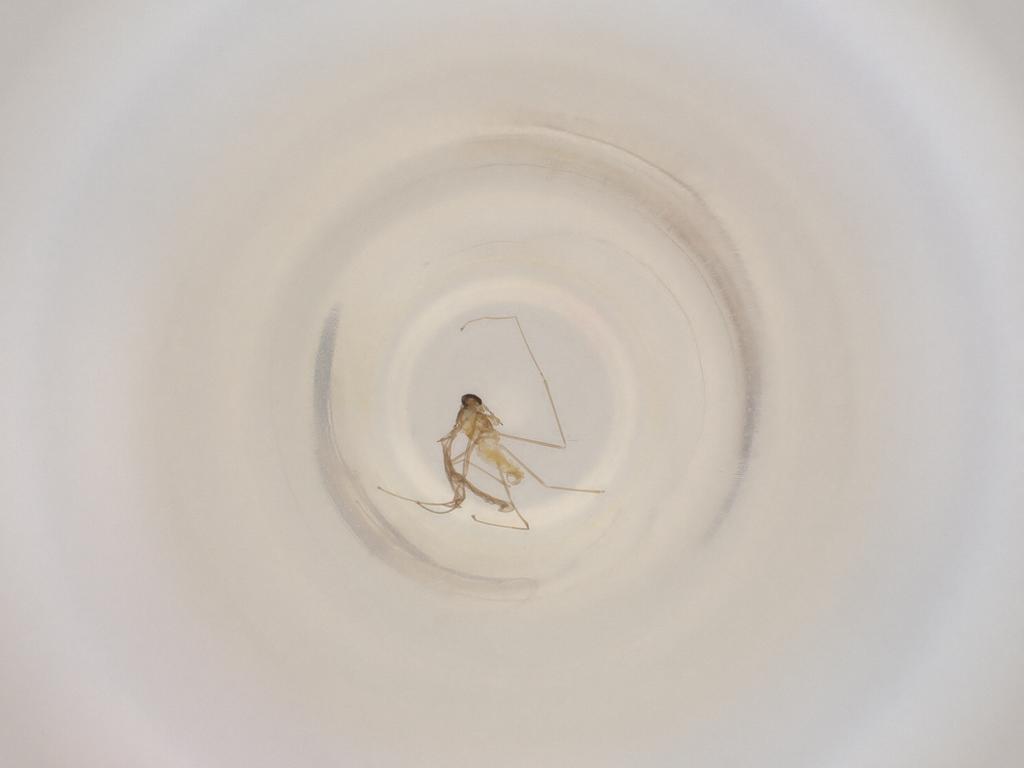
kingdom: Animalia
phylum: Arthropoda
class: Insecta
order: Diptera
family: Cecidomyiidae
